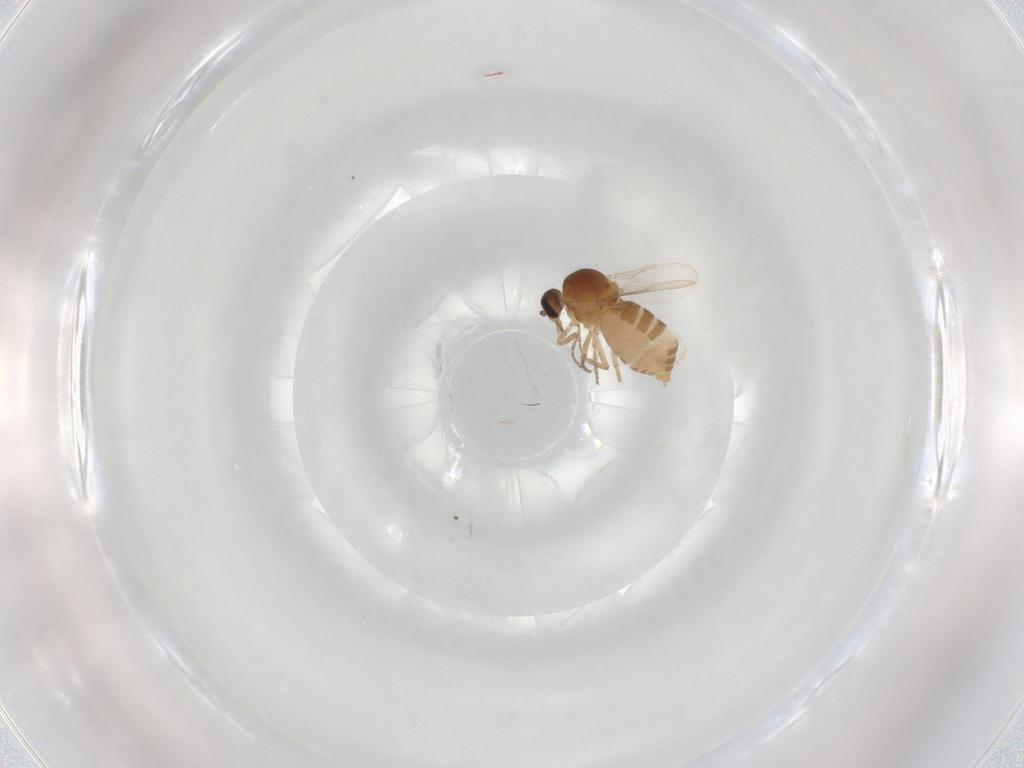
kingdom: Animalia
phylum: Arthropoda
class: Insecta
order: Diptera
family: Ceratopogonidae
